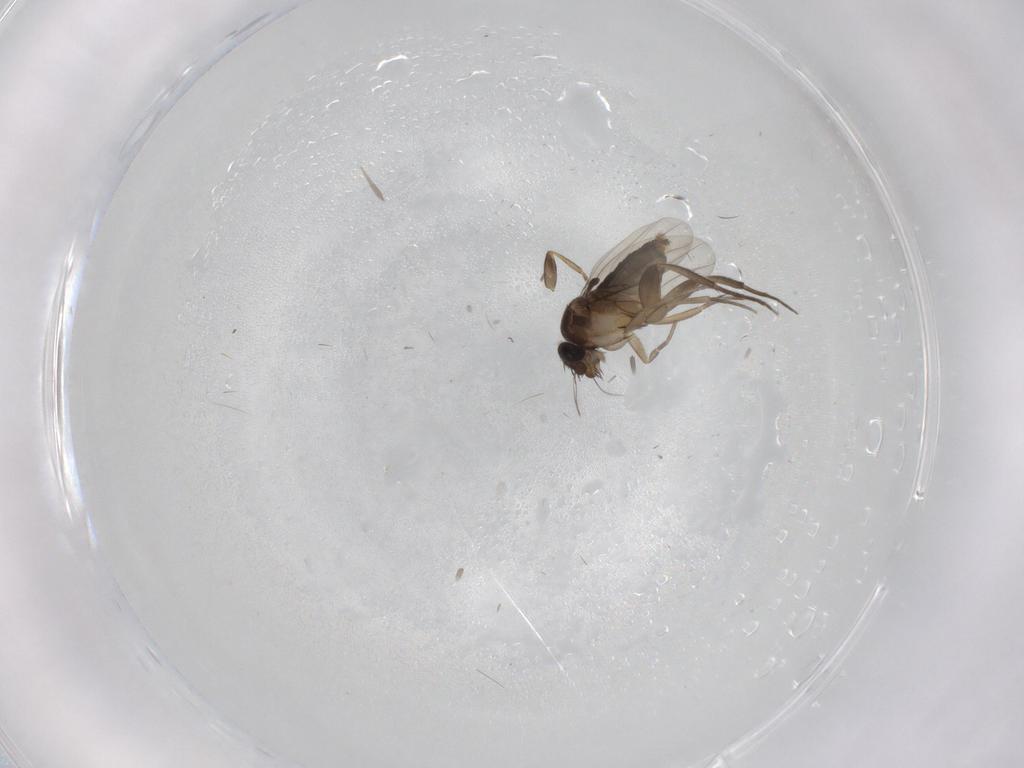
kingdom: Animalia
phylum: Arthropoda
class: Insecta
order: Diptera
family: Phoridae
